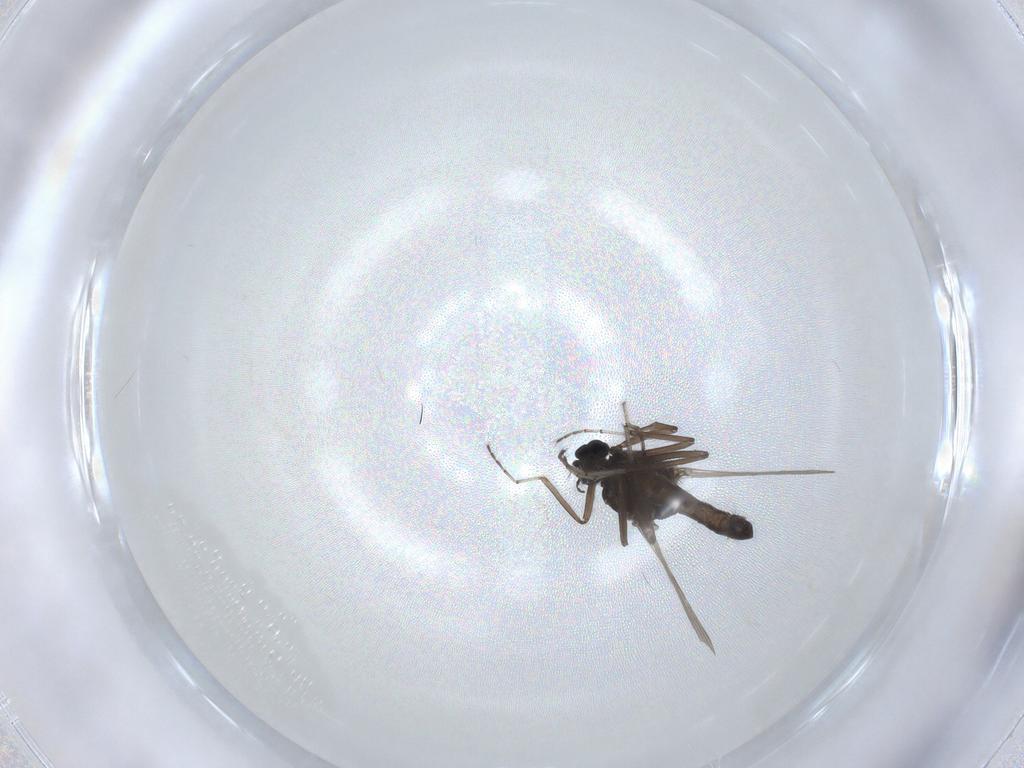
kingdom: Animalia
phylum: Arthropoda
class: Insecta
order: Diptera
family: Ceratopogonidae
